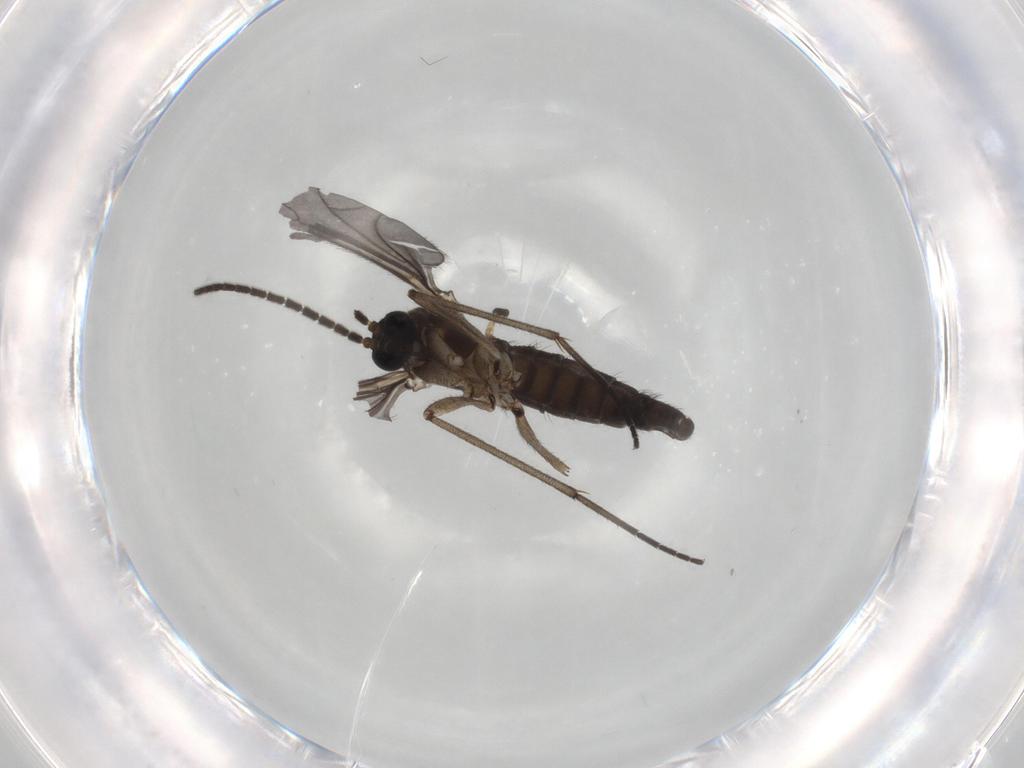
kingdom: Animalia
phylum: Arthropoda
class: Insecta
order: Diptera
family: Sciaridae
